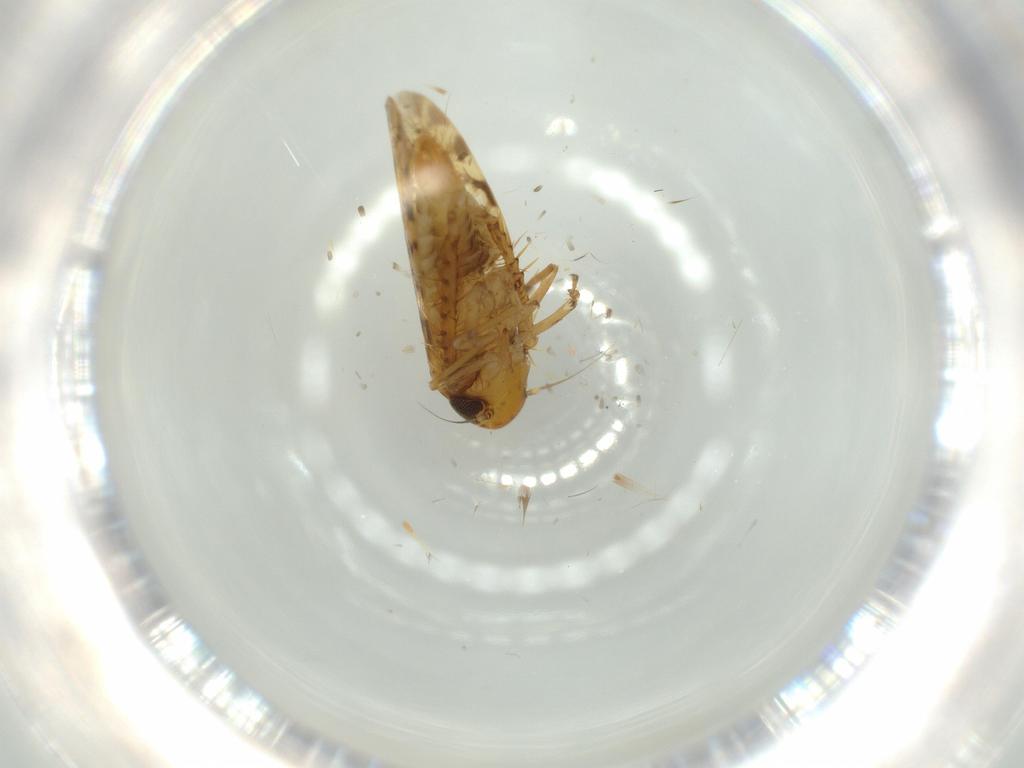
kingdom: Animalia
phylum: Arthropoda
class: Insecta
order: Hemiptera
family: Cicadellidae
